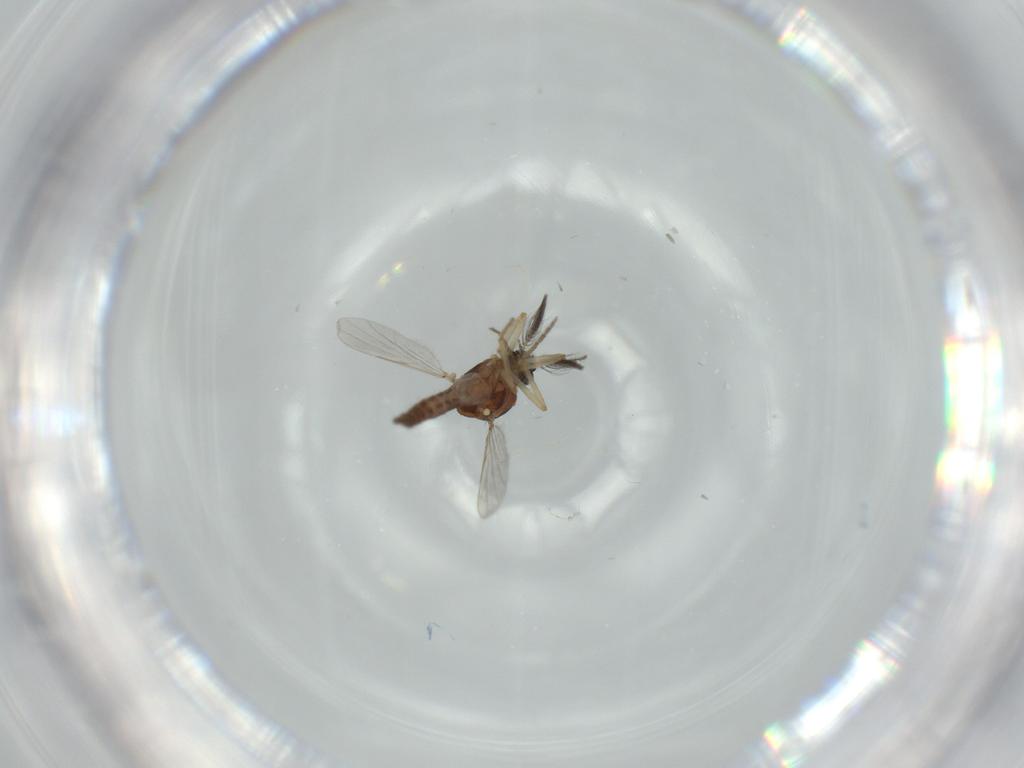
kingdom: Animalia
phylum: Arthropoda
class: Insecta
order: Diptera
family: Ceratopogonidae
